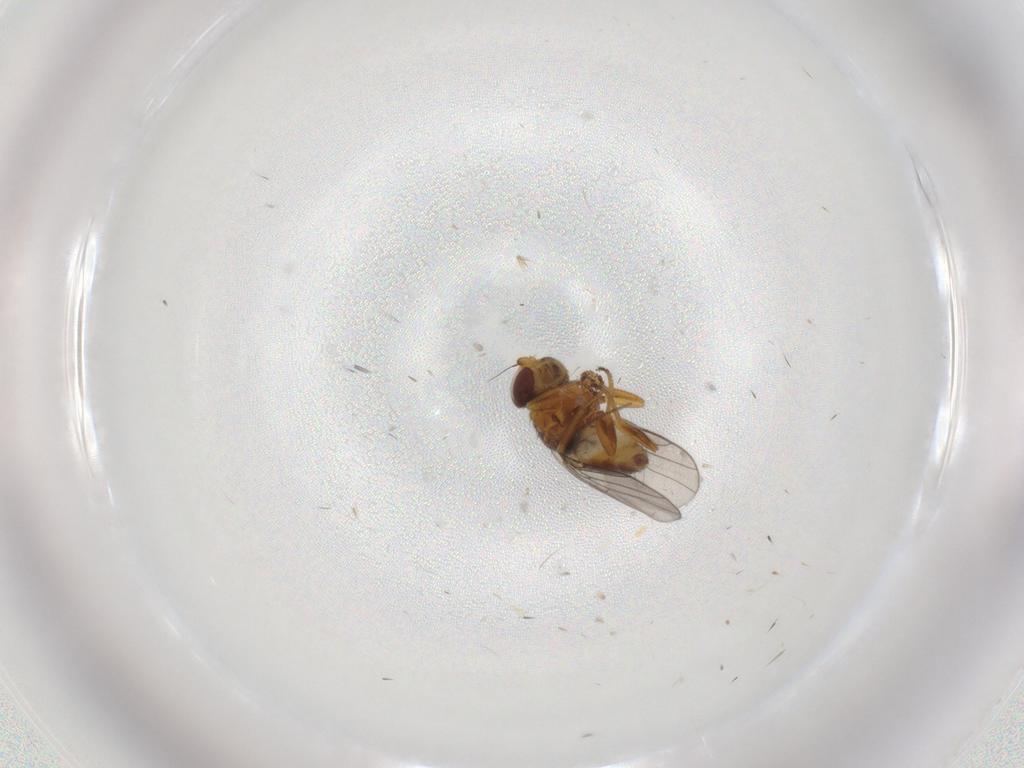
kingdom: Animalia
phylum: Arthropoda
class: Insecta
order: Diptera
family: Chloropidae
